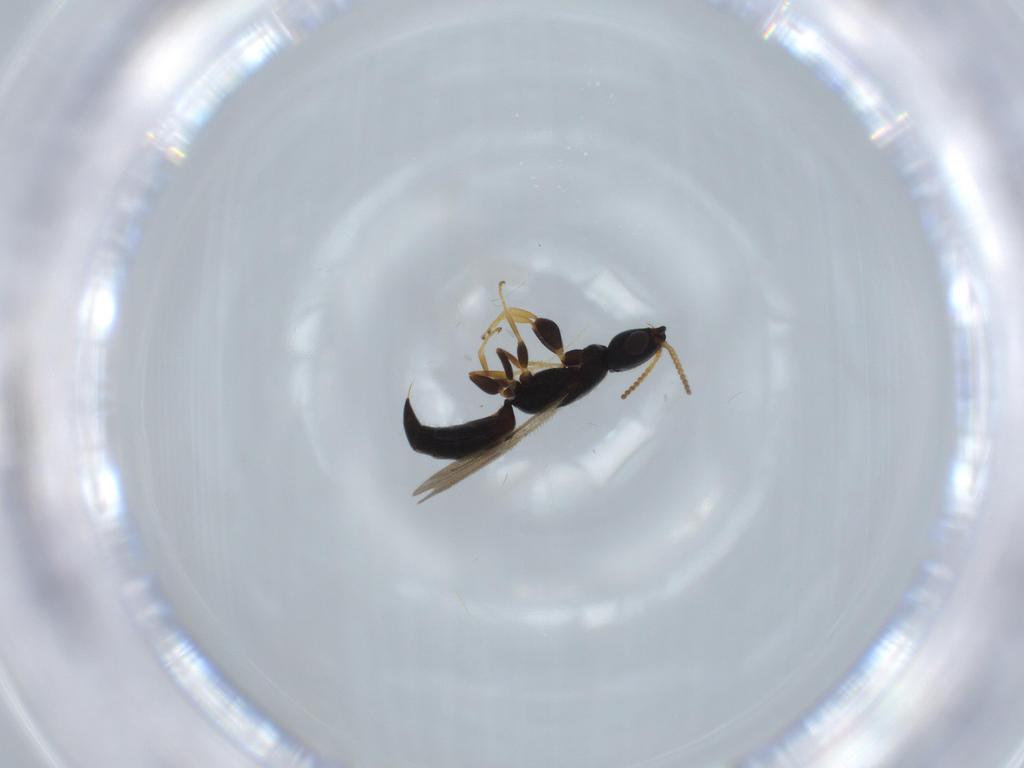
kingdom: Animalia
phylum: Arthropoda
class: Insecta
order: Hymenoptera
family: Bethylidae
